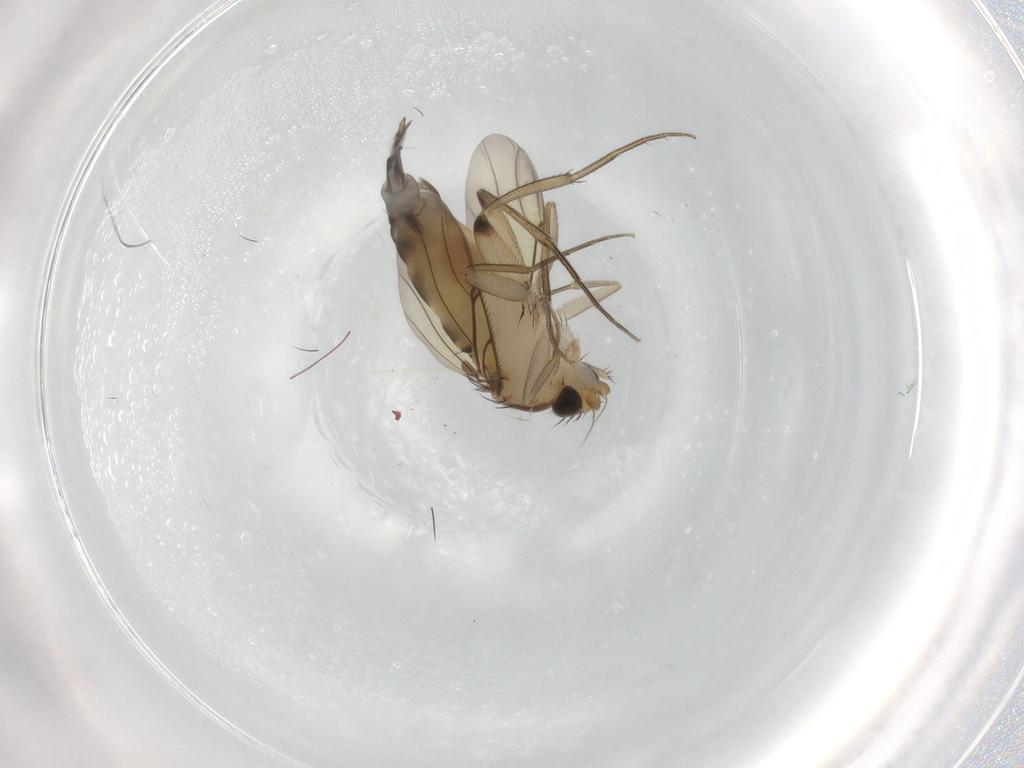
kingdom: Animalia
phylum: Arthropoda
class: Insecta
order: Diptera
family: Phoridae
